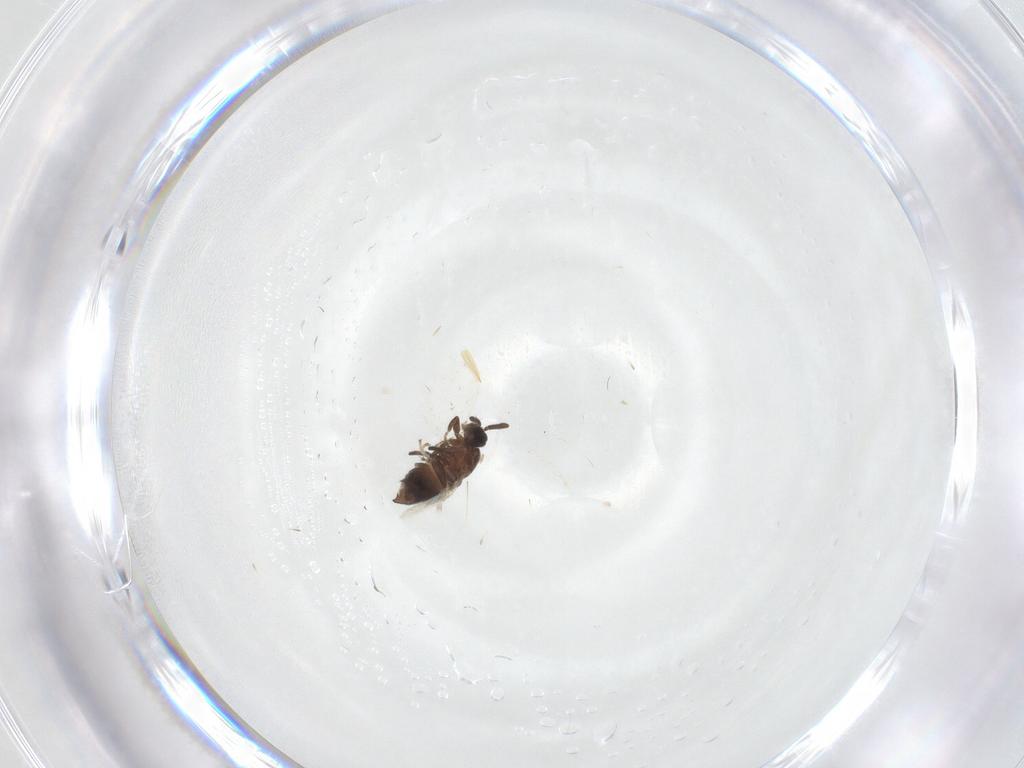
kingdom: Animalia
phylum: Arthropoda
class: Insecta
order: Diptera
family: Scatopsidae
